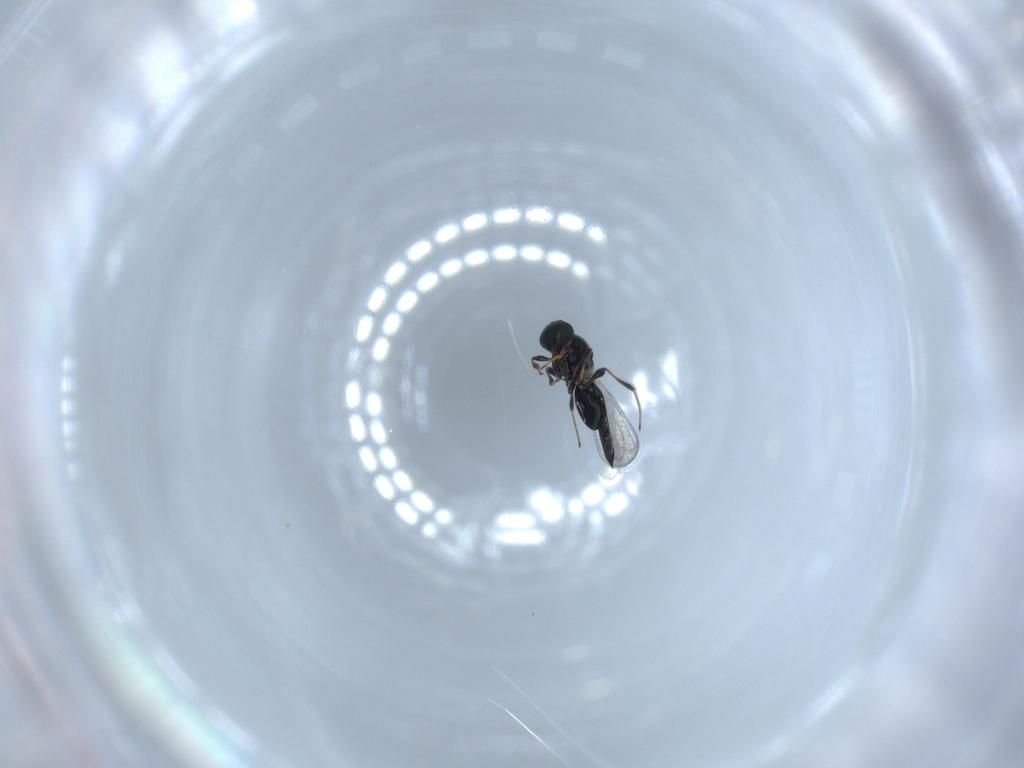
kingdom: Animalia
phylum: Arthropoda
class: Insecta
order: Hymenoptera
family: Platygastridae
